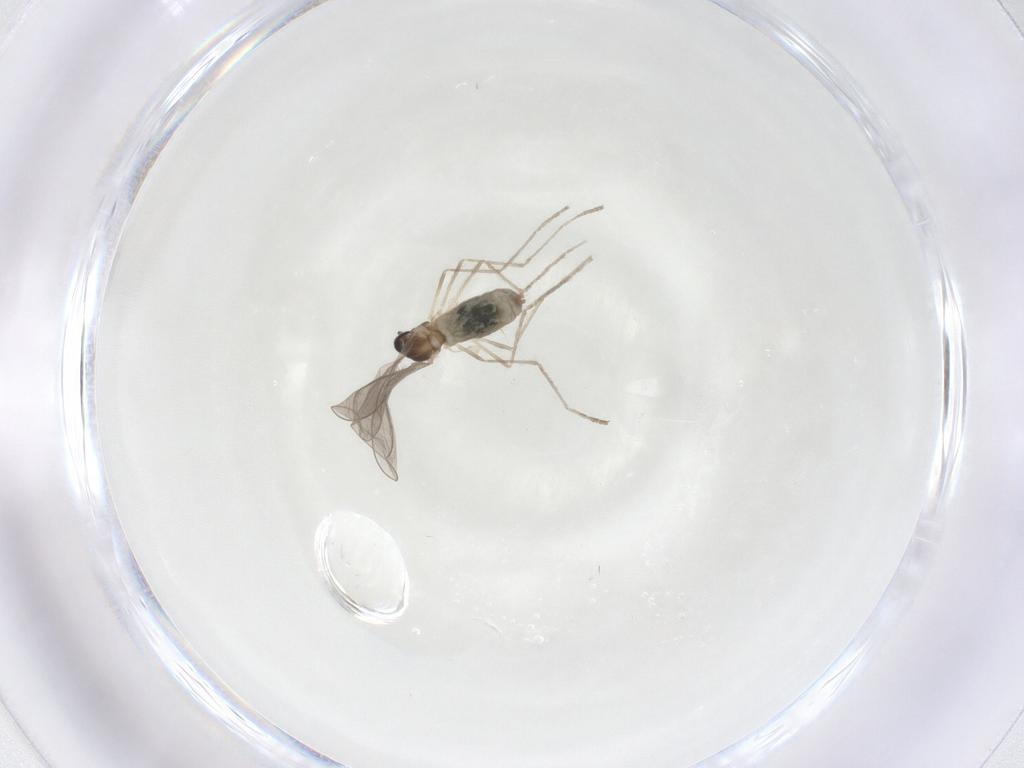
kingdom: Animalia
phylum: Arthropoda
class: Insecta
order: Diptera
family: Cecidomyiidae
